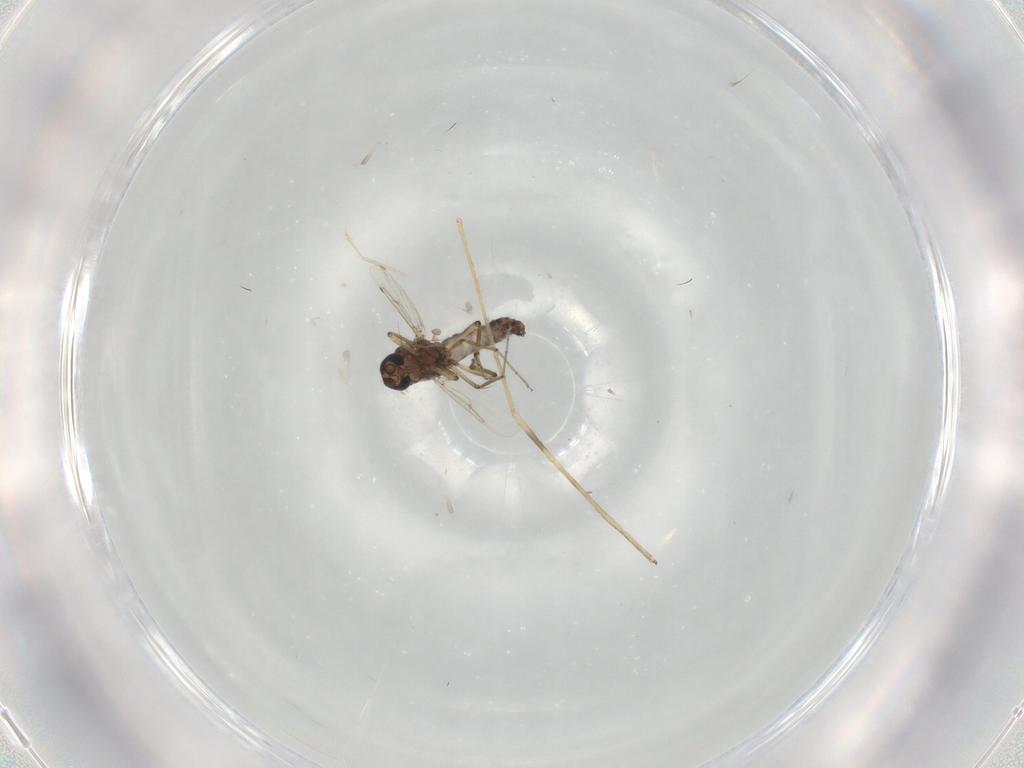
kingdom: Animalia
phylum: Arthropoda
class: Insecta
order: Diptera
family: Ceratopogonidae
